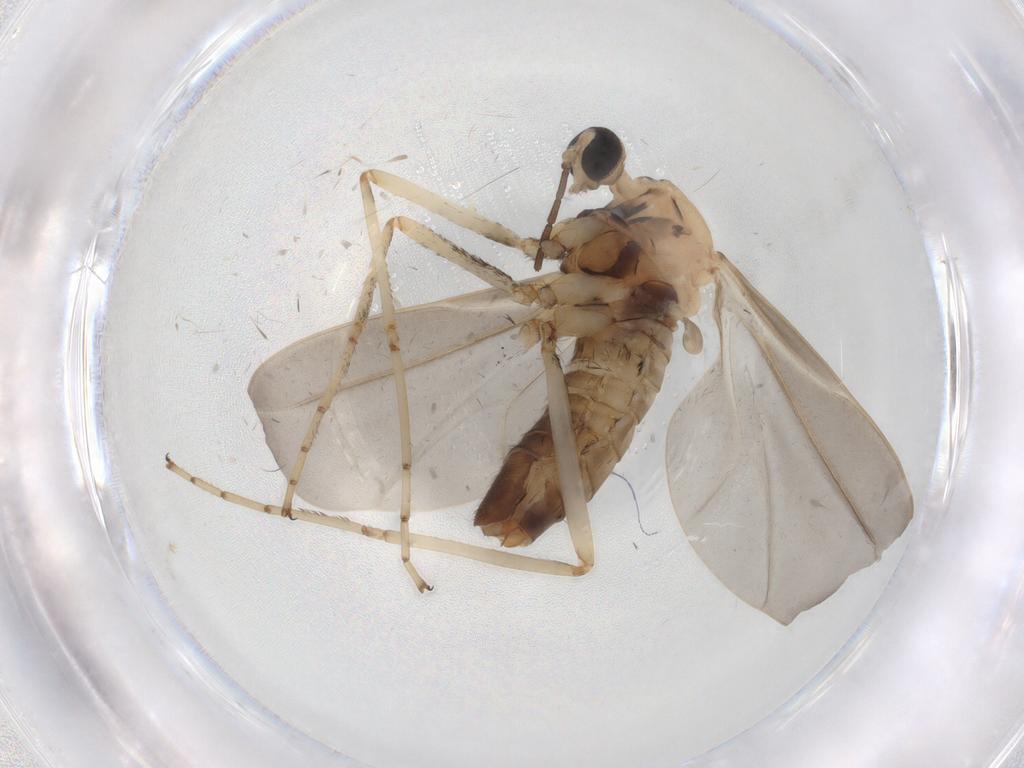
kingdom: Animalia
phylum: Arthropoda
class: Insecta
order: Diptera
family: Cecidomyiidae
